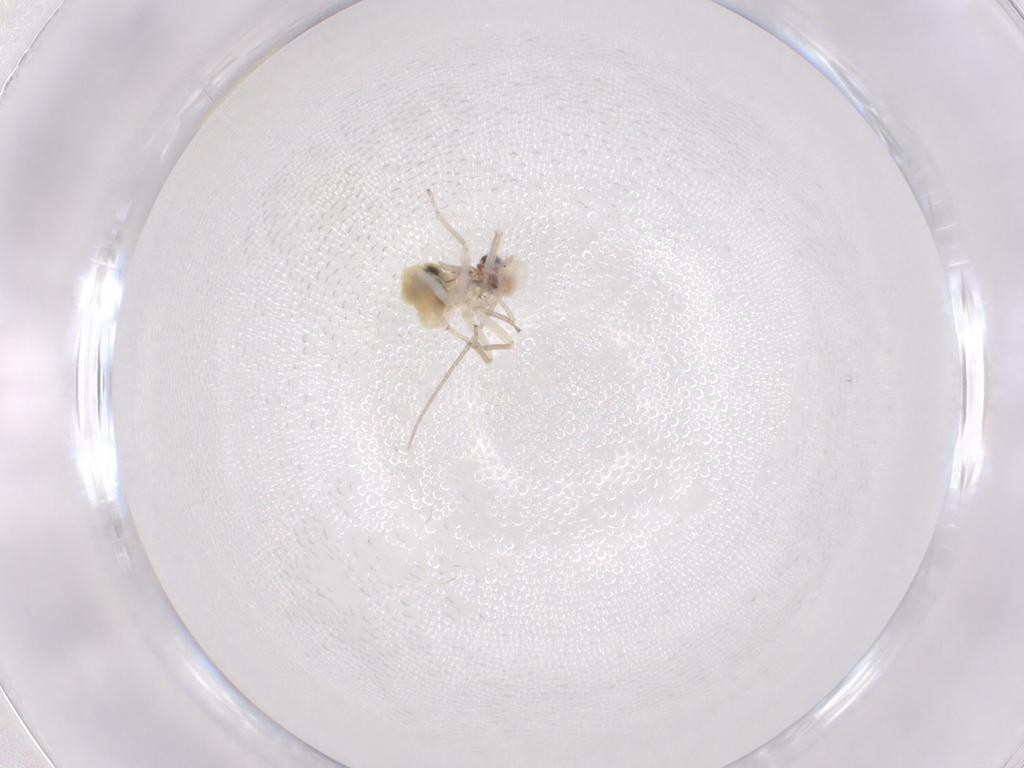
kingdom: Animalia
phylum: Arthropoda
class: Insecta
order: Psocodea
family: Caeciliusidae
